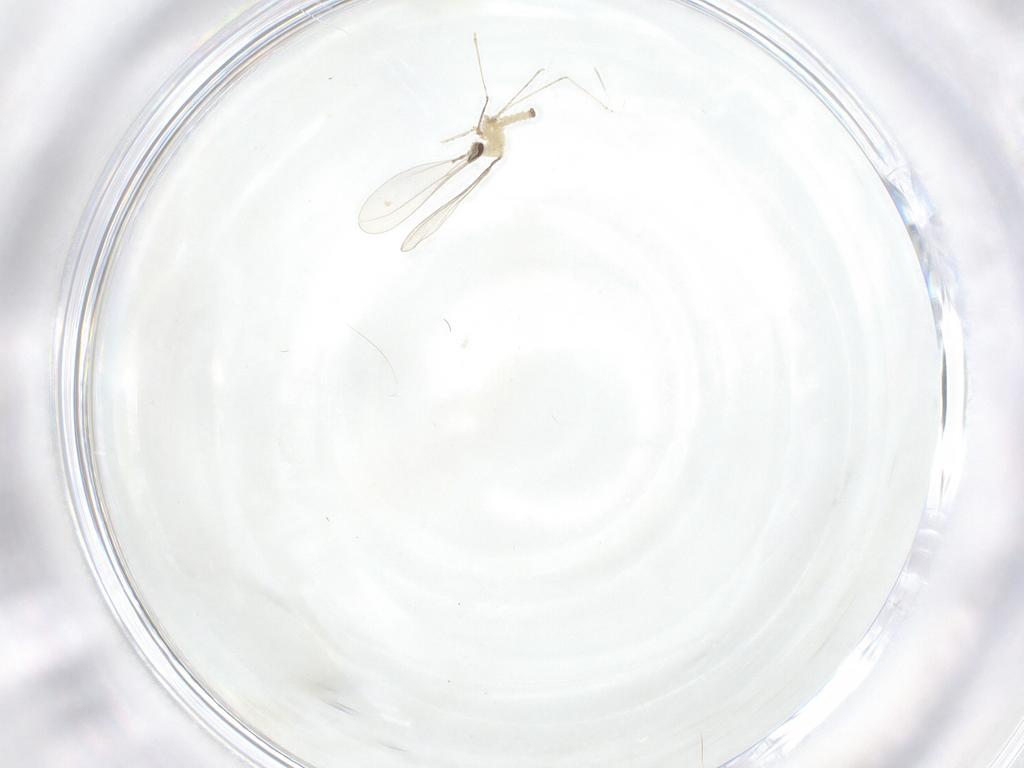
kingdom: Animalia
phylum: Arthropoda
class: Insecta
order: Diptera
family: Cecidomyiidae
